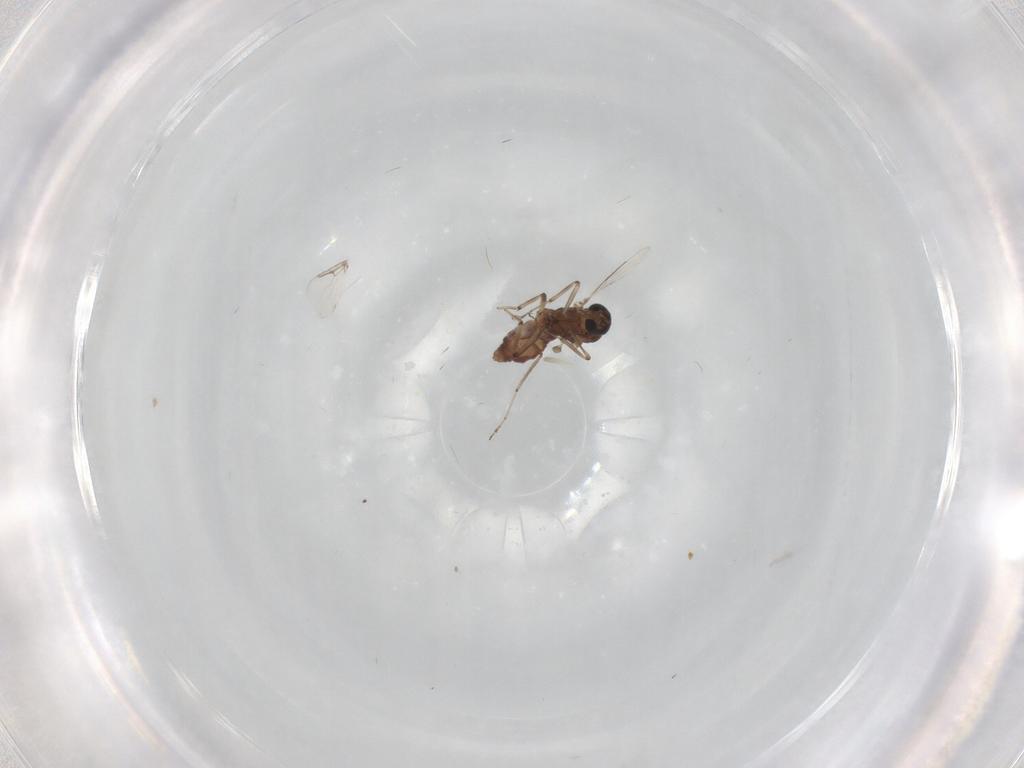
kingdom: Animalia
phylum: Arthropoda
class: Insecta
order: Diptera
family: Ceratopogonidae
